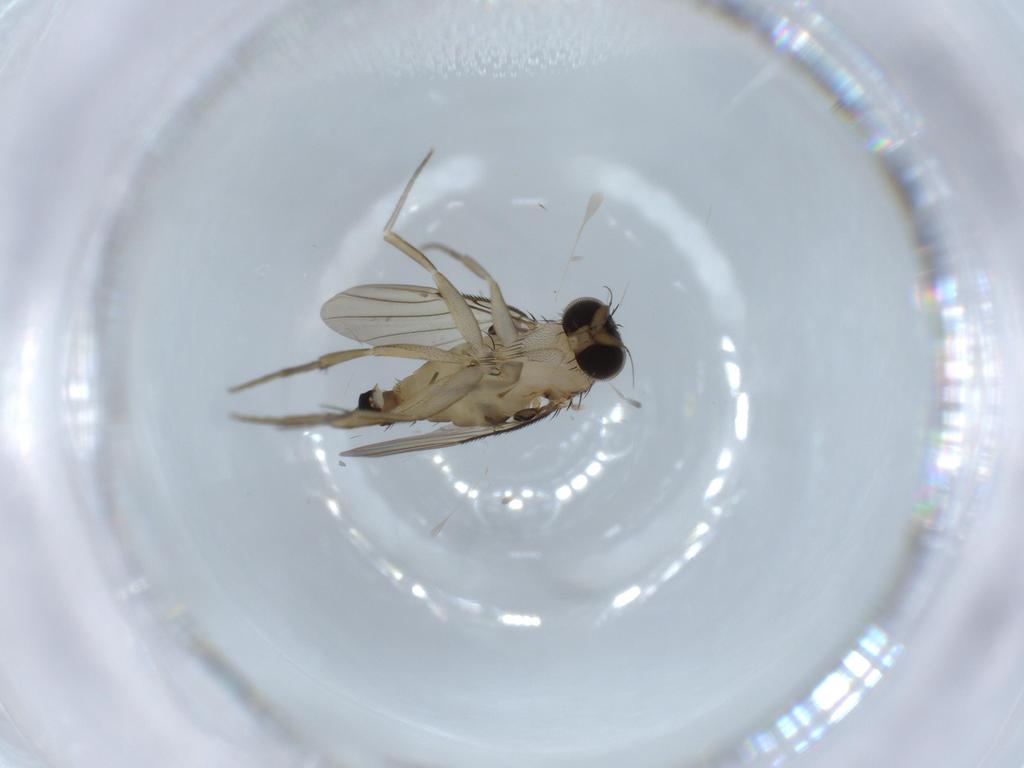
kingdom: Animalia
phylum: Arthropoda
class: Insecta
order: Diptera
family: Phoridae
